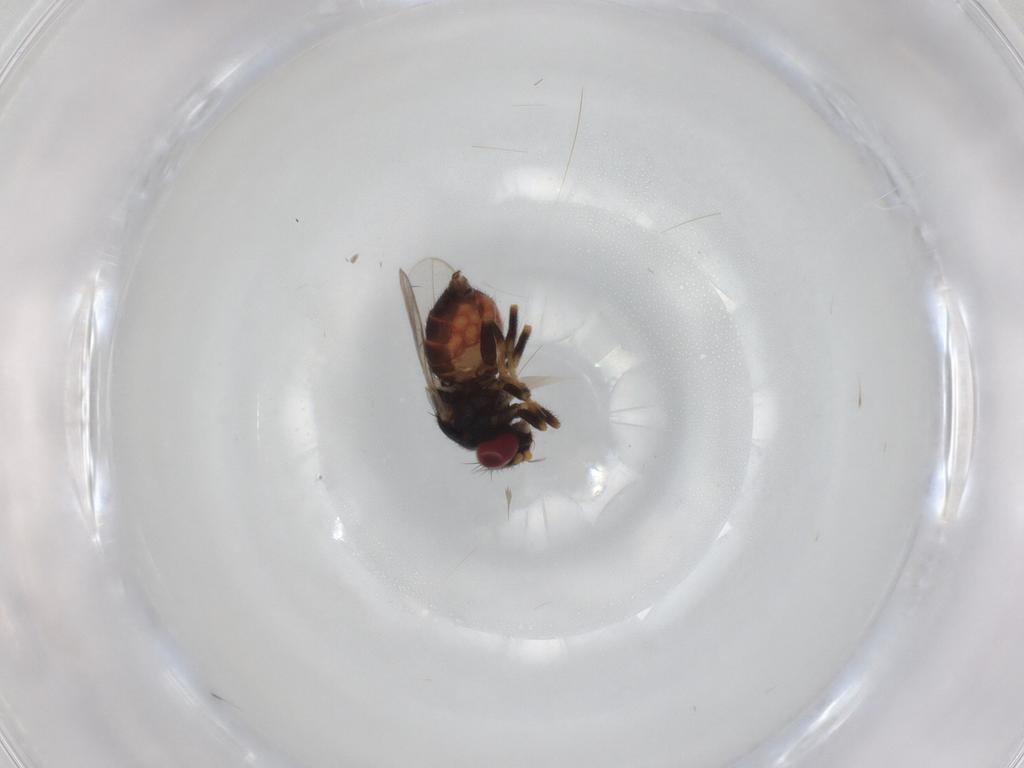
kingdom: Animalia
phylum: Arthropoda
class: Insecta
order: Diptera
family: Chloropidae
